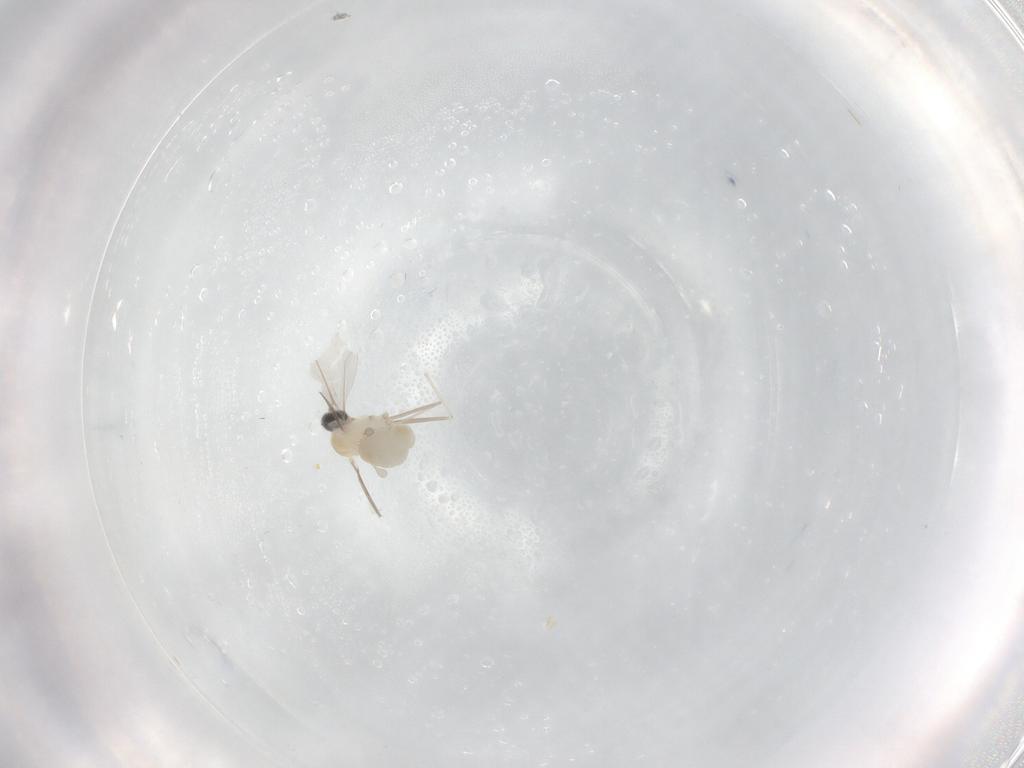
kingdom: Animalia
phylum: Arthropoda
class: Insecta
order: Diptera
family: Cecidomyiidae
